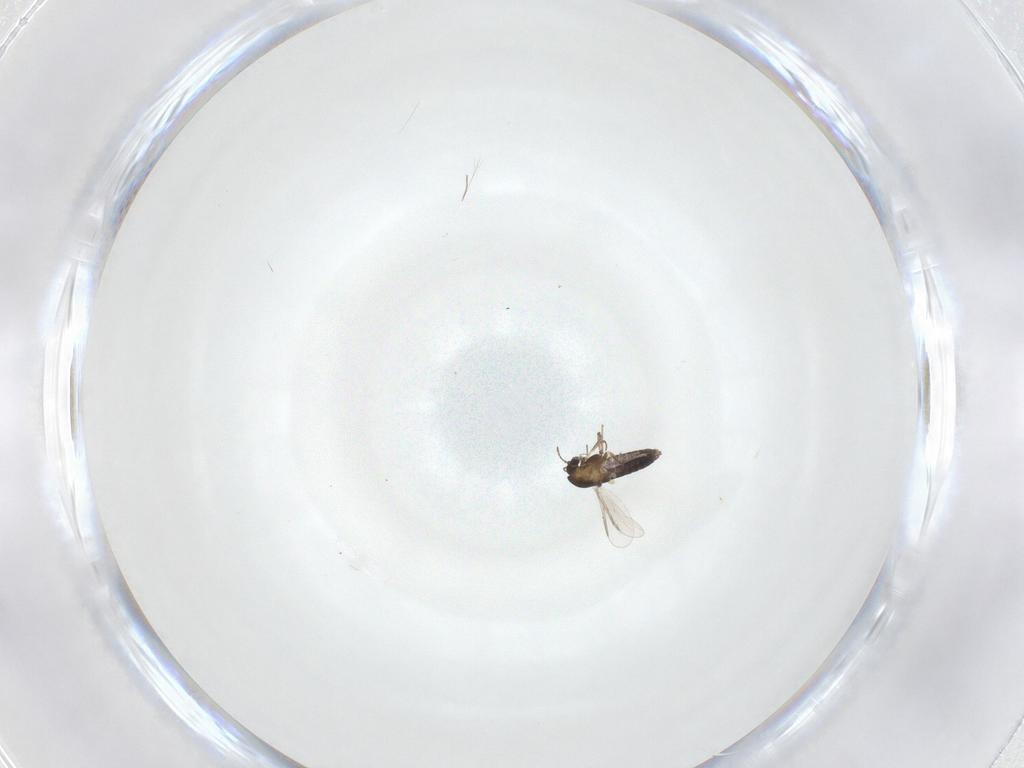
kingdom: Animalia
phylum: Arthropoda
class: Insecta
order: Diptera
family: Chironomidae
